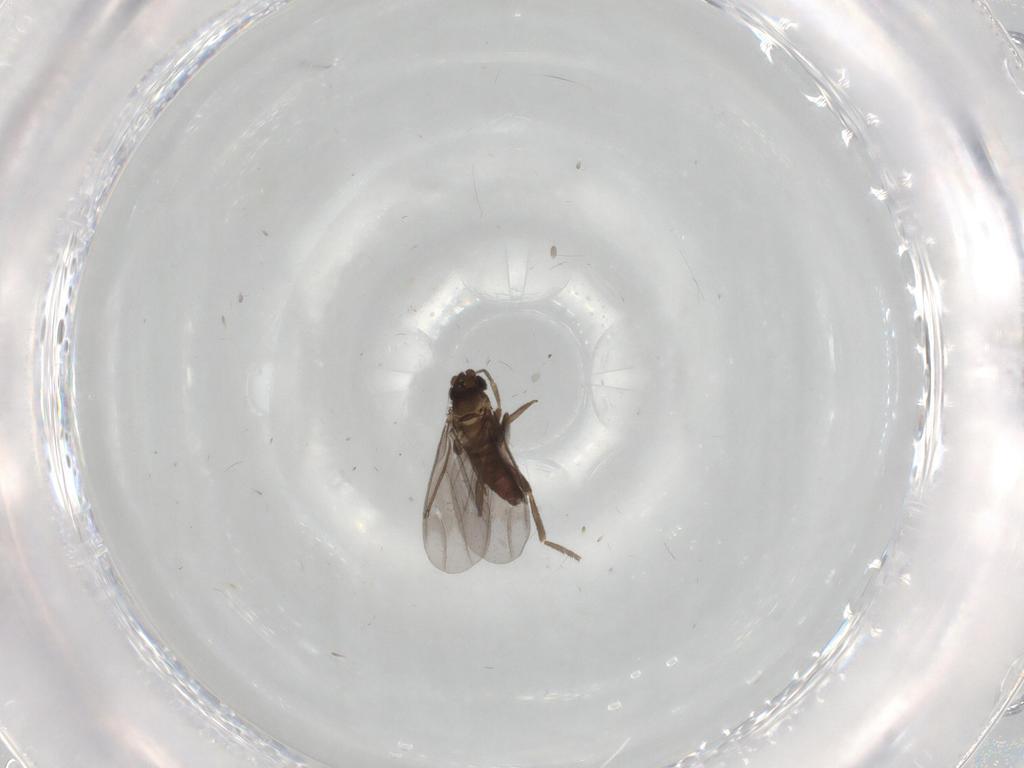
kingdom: Animalia
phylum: Arthropoda
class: Insecta
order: Diptera
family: Phoridae
